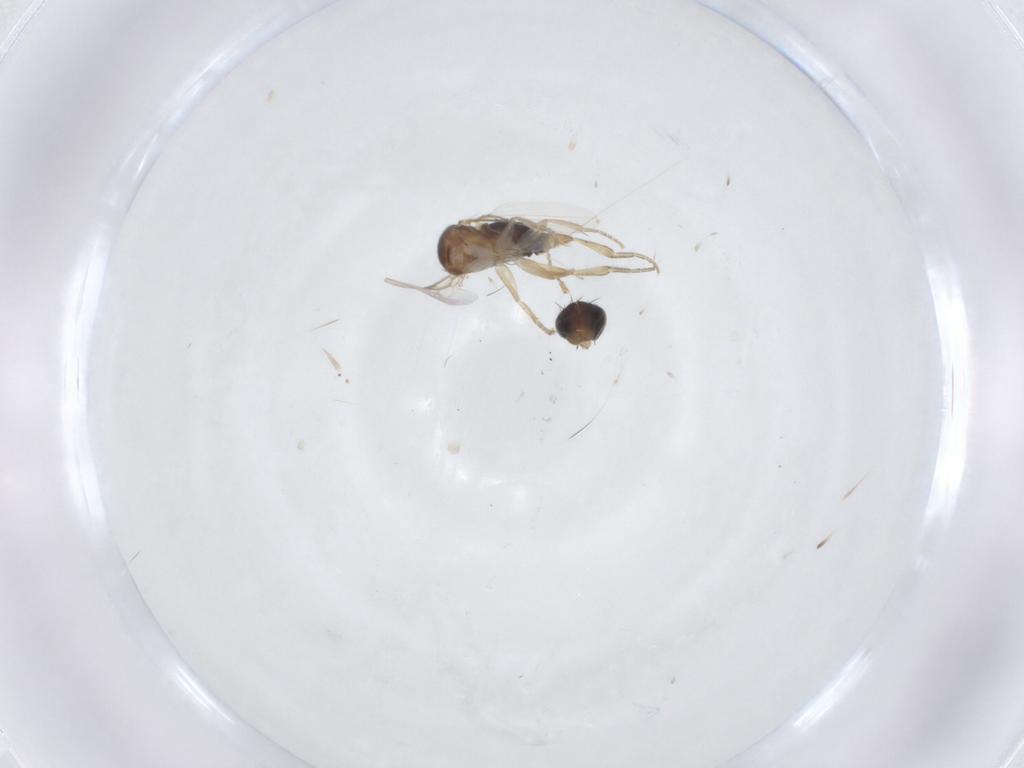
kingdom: Animalia
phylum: Arthropoda
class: Insecta
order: Diptera
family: Phoridae
